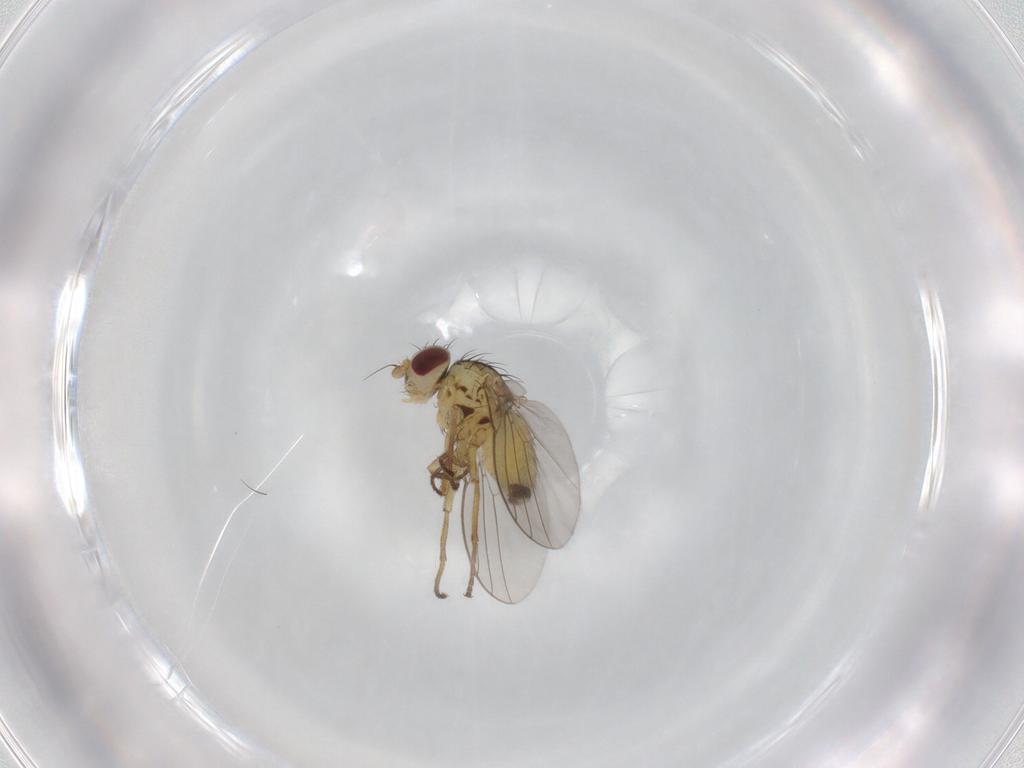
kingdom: Animalia
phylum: Arthropoda
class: Insecta
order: Diptera
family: Agromyzidae
